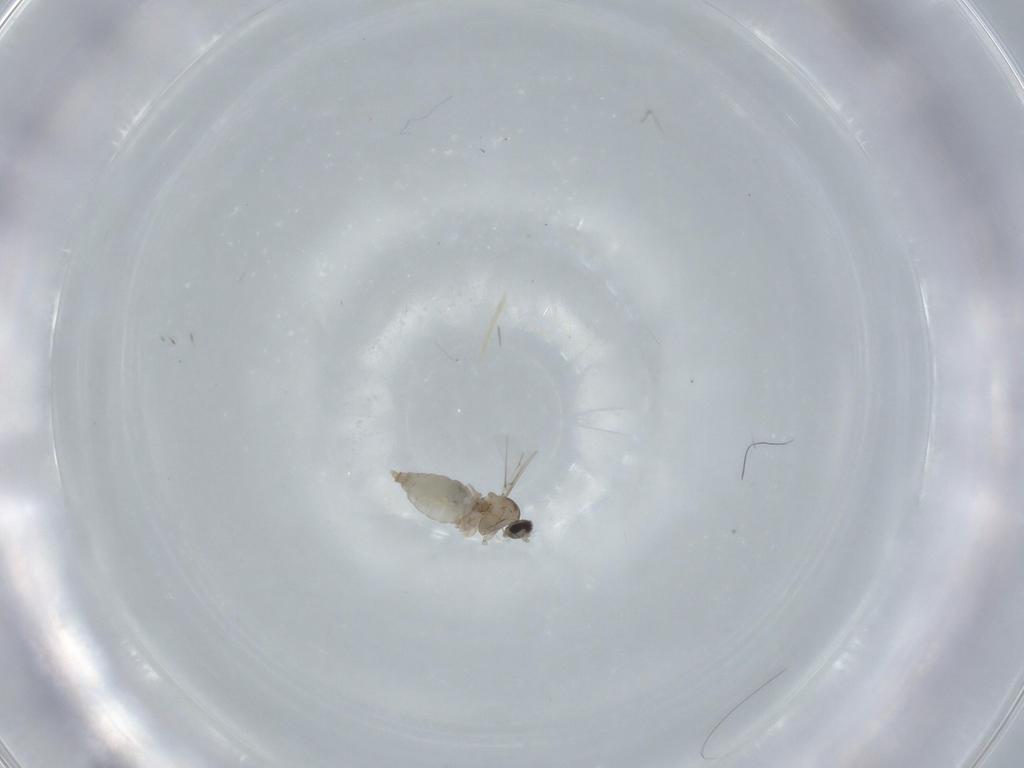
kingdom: Animalia
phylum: Arthropoda
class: Insecta
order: Diptera
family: Cecidomyiidae
